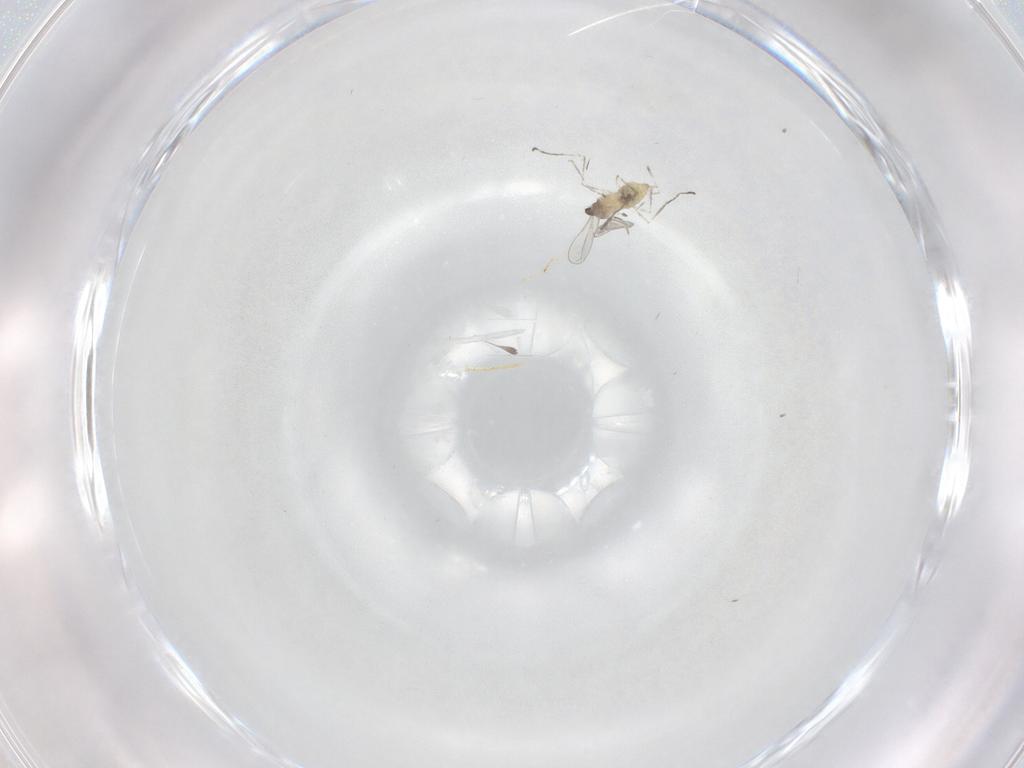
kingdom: Animalia
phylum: Arthropoda
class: Insecta
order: Diptera
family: Cecidomyiidae
